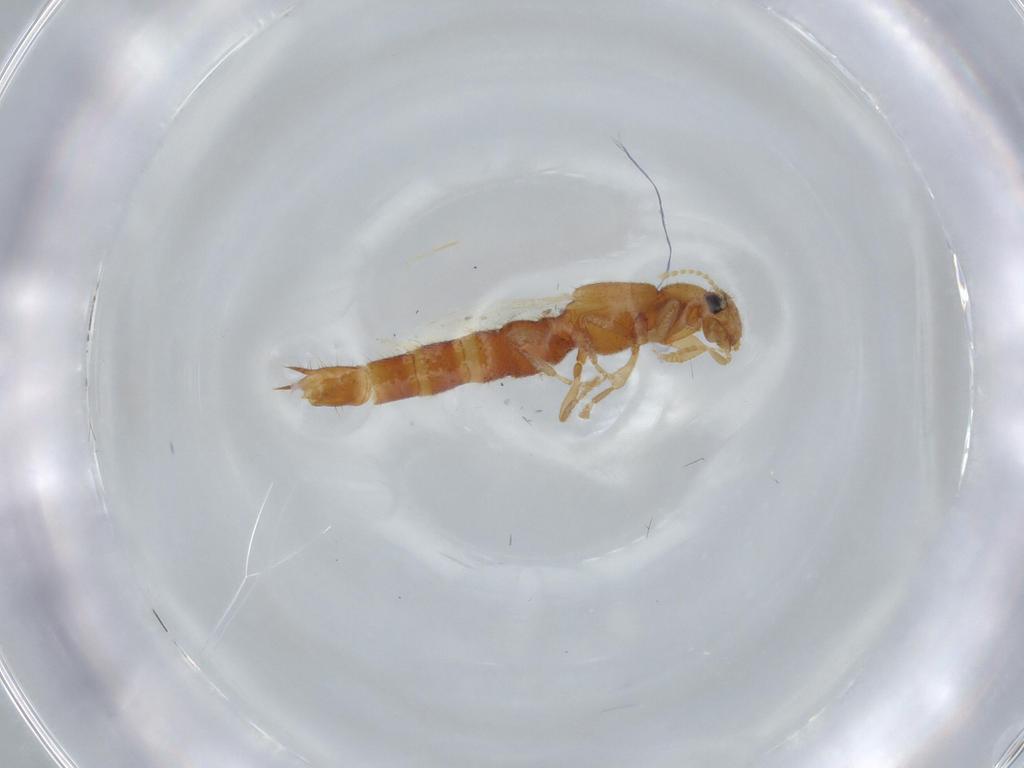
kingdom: Animalia
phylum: Arthropoda
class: Insecta
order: Coleoptera
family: Staphylinidae
